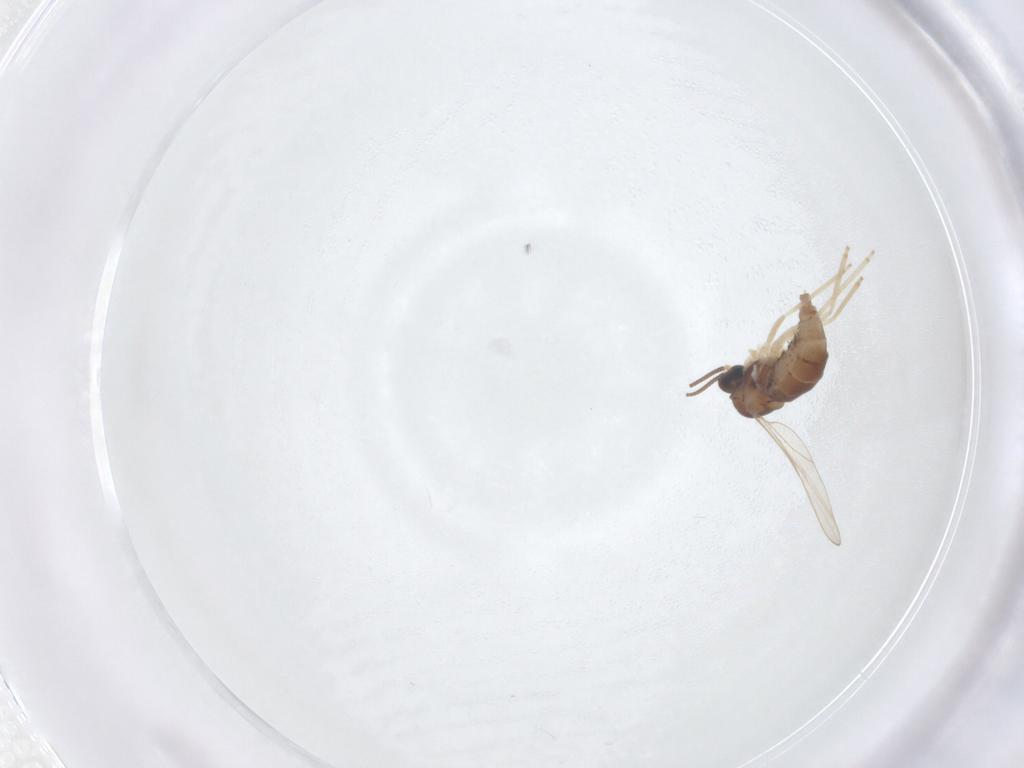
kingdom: Animalia
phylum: Arthropoda
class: Insecta
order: Diptera
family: Cecidomyiidae
